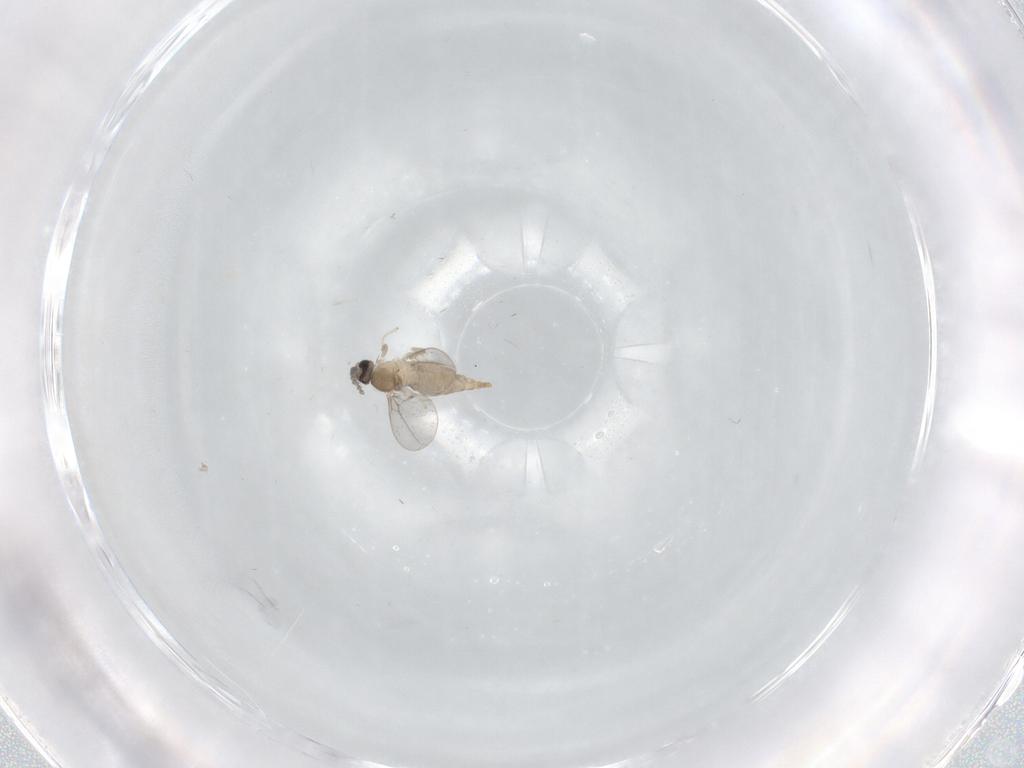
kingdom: Animalia
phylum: Arthropoda
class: Insecta
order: Diptera
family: Cecidomyiidae
